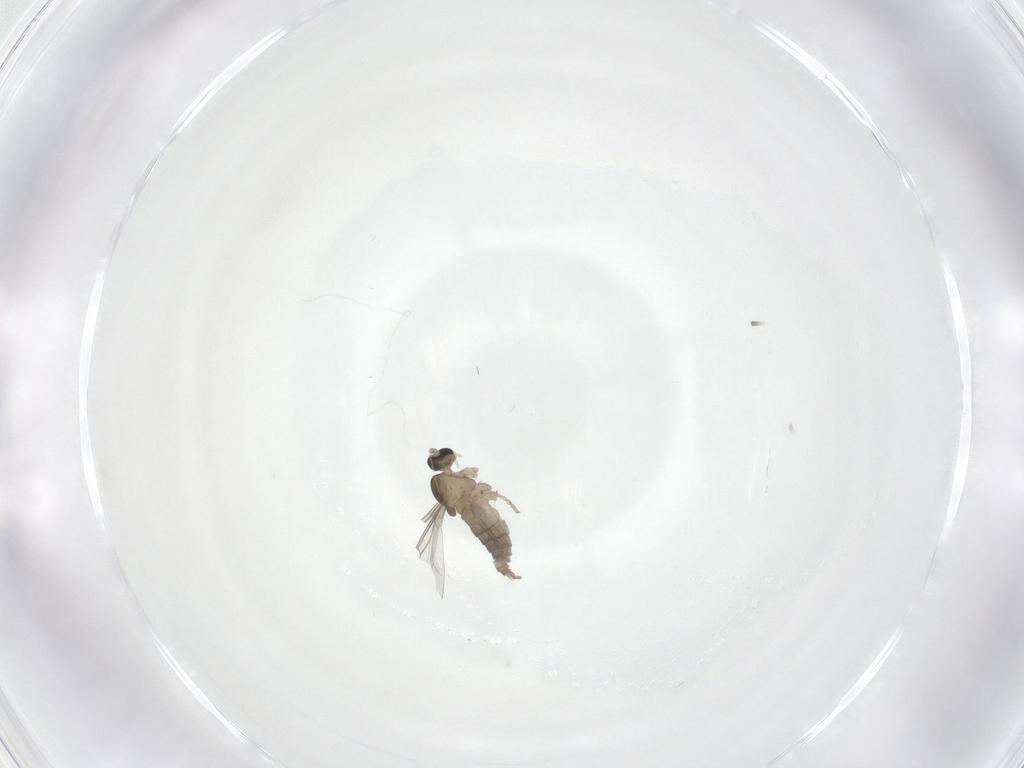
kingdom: Animalia
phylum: Arthropoda
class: Insecta
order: Diptera
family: Cecidomyiidae
